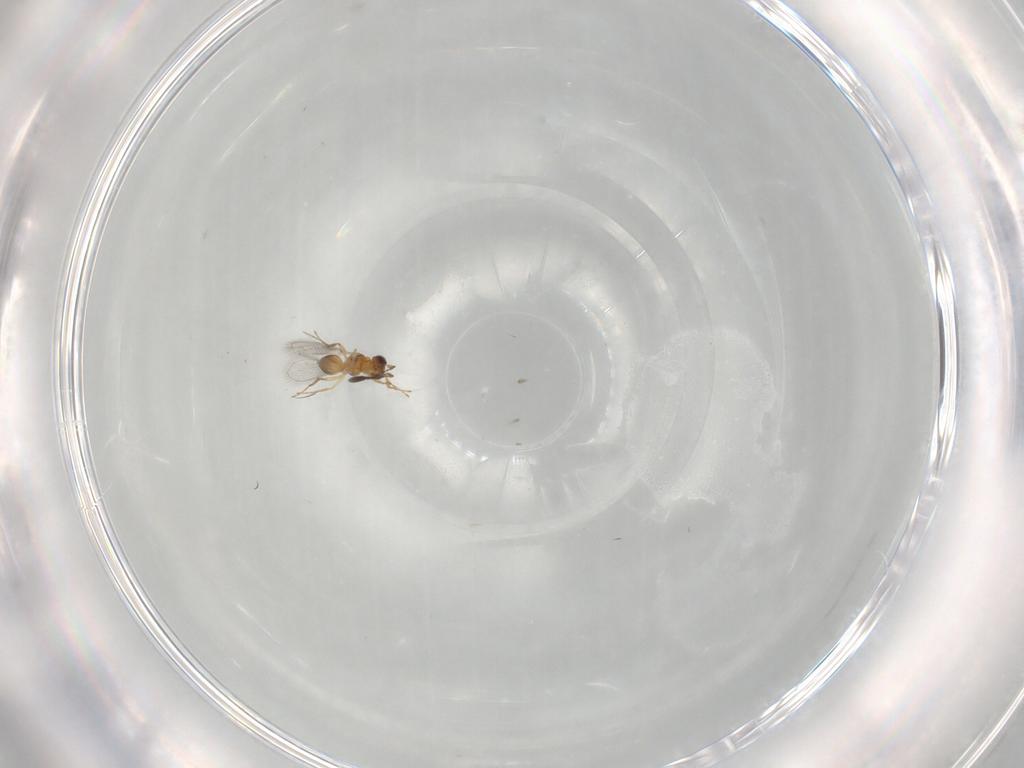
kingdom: Animalia
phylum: Arthropoda
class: Insecta
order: Hymenoptera
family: Mymaridae
